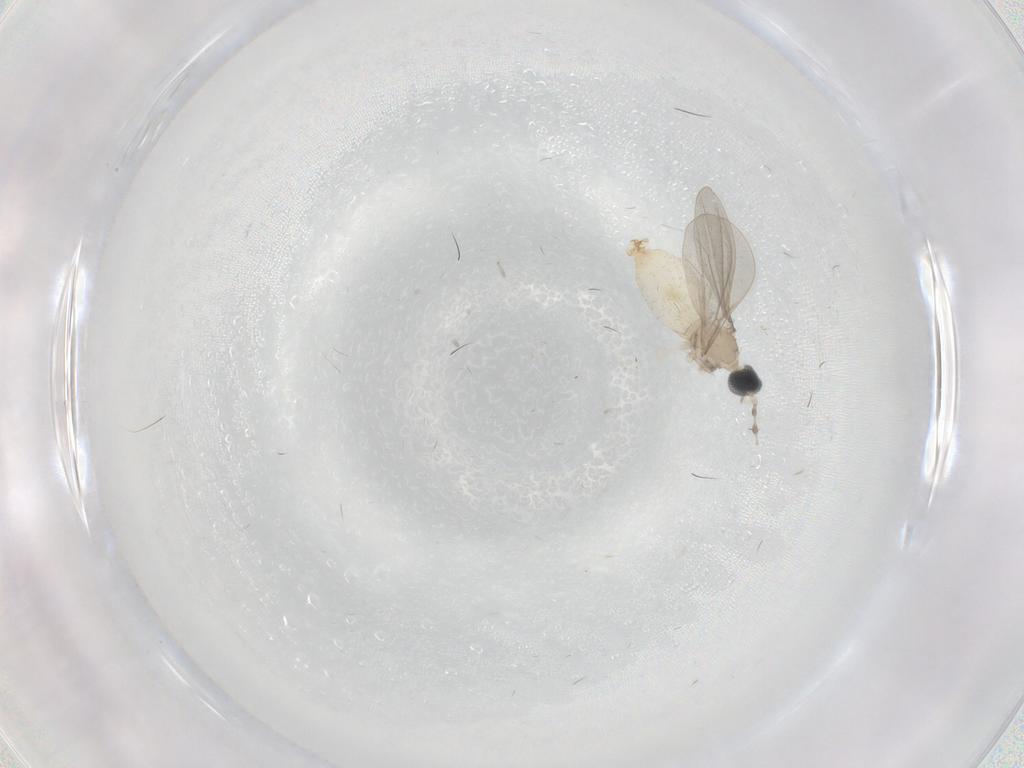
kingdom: Animalia
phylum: Arthropoda
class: Insecta
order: Diptera
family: Cecidomyiidae
